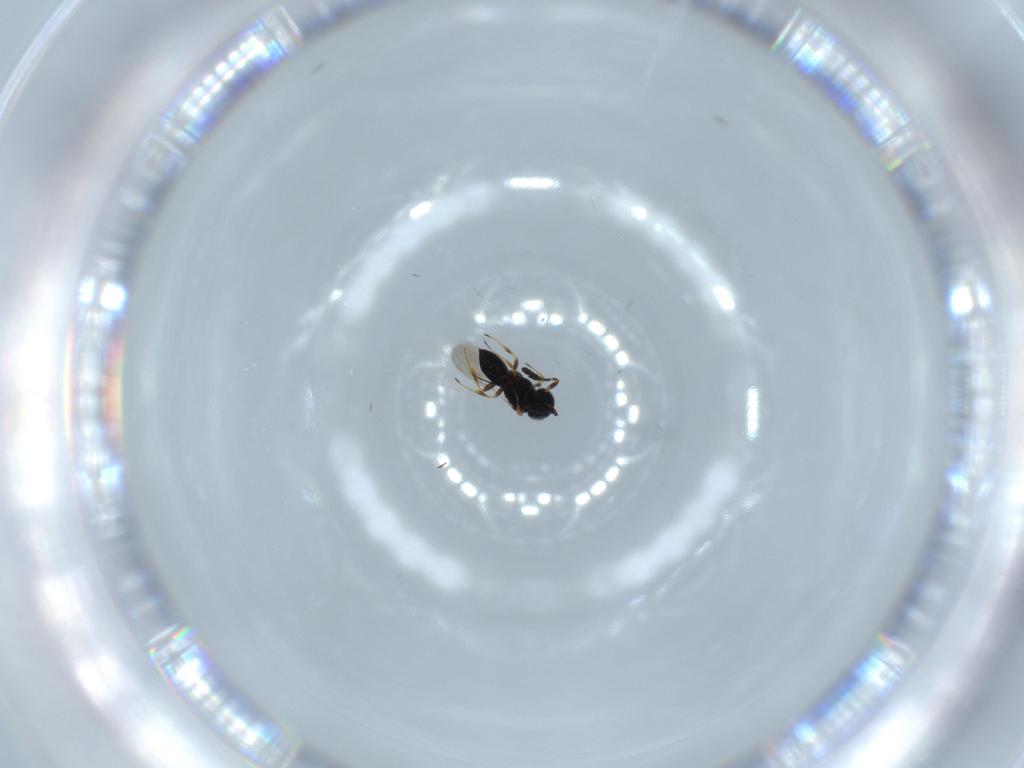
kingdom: Animalia
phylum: Arthropoda
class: Insecta
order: Hymenoptera
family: Scelionidae
